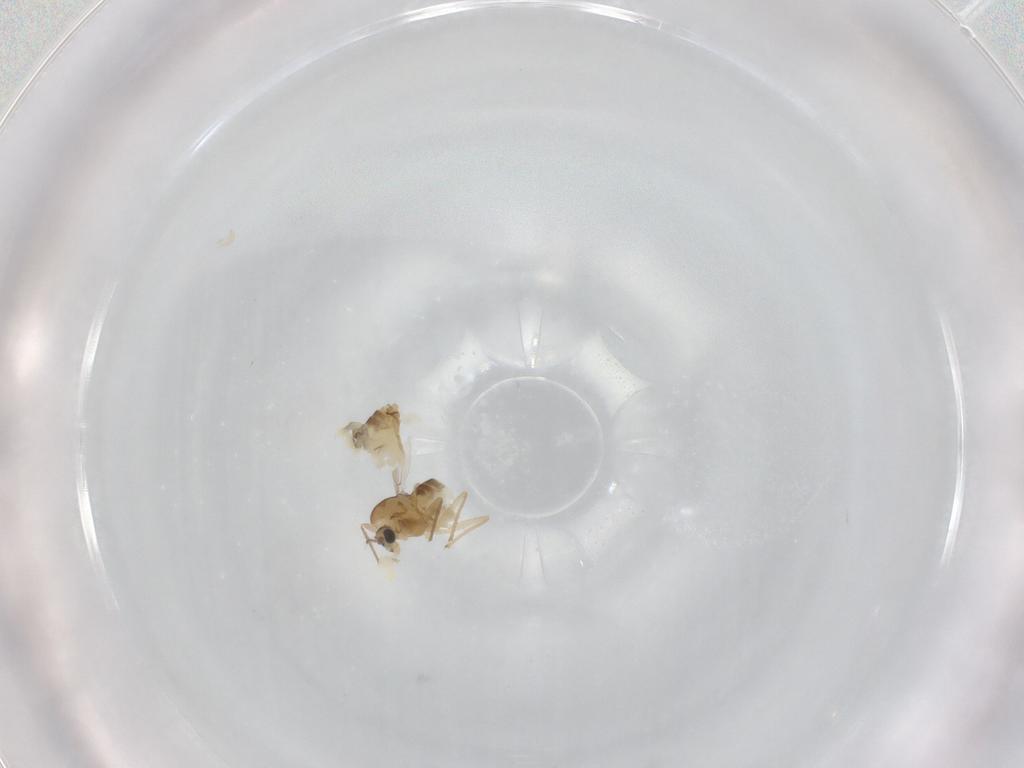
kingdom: Animalia
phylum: Arthropoda
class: Insecta
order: Diptera
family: Chironomidae
